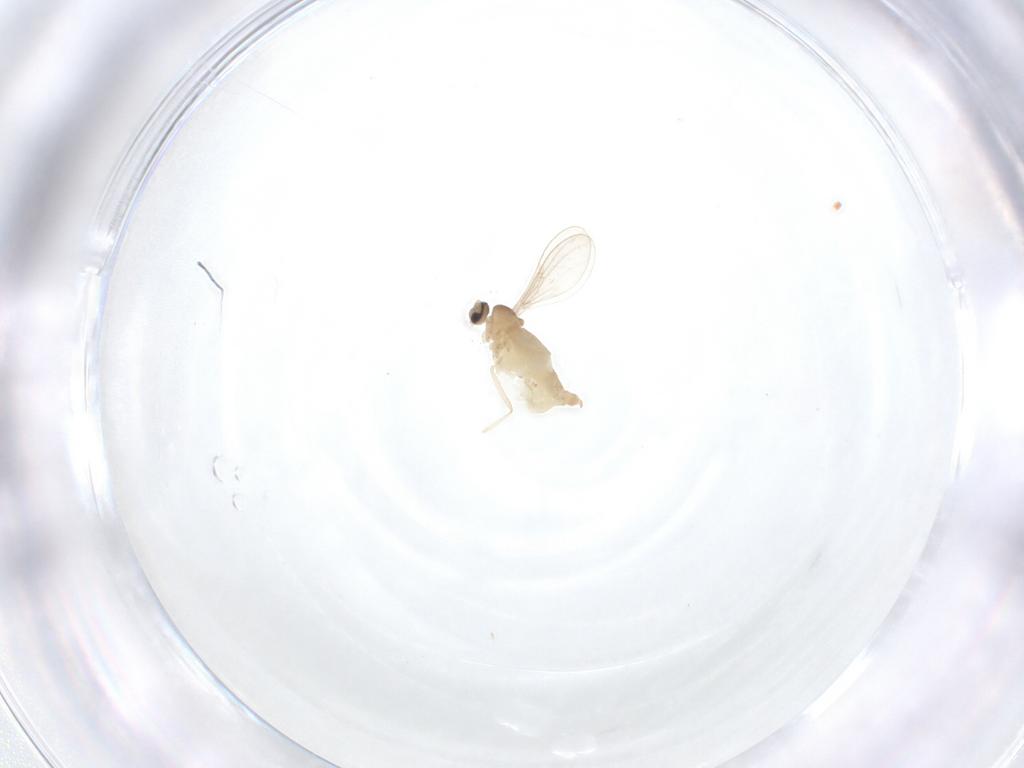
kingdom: Animalia
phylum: Arthropoda
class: Insecta
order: Diptera
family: Cecidomyiidae
